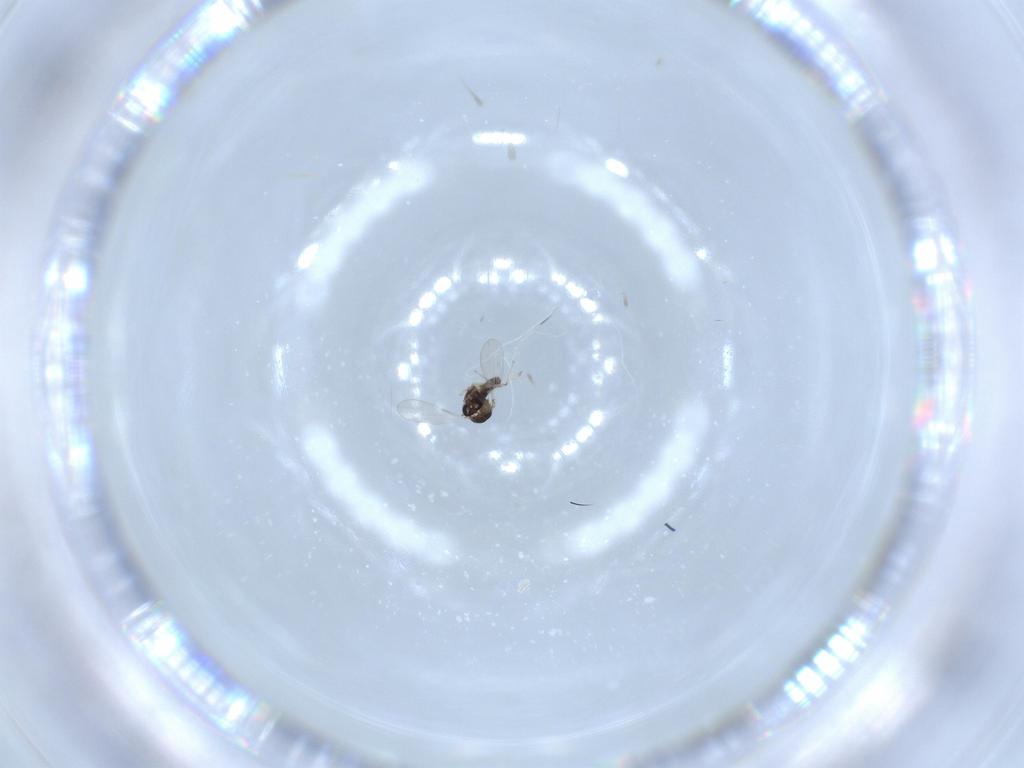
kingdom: Animalia
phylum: Arthropoda
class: Insecta
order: Diptera
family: Chironomidae
